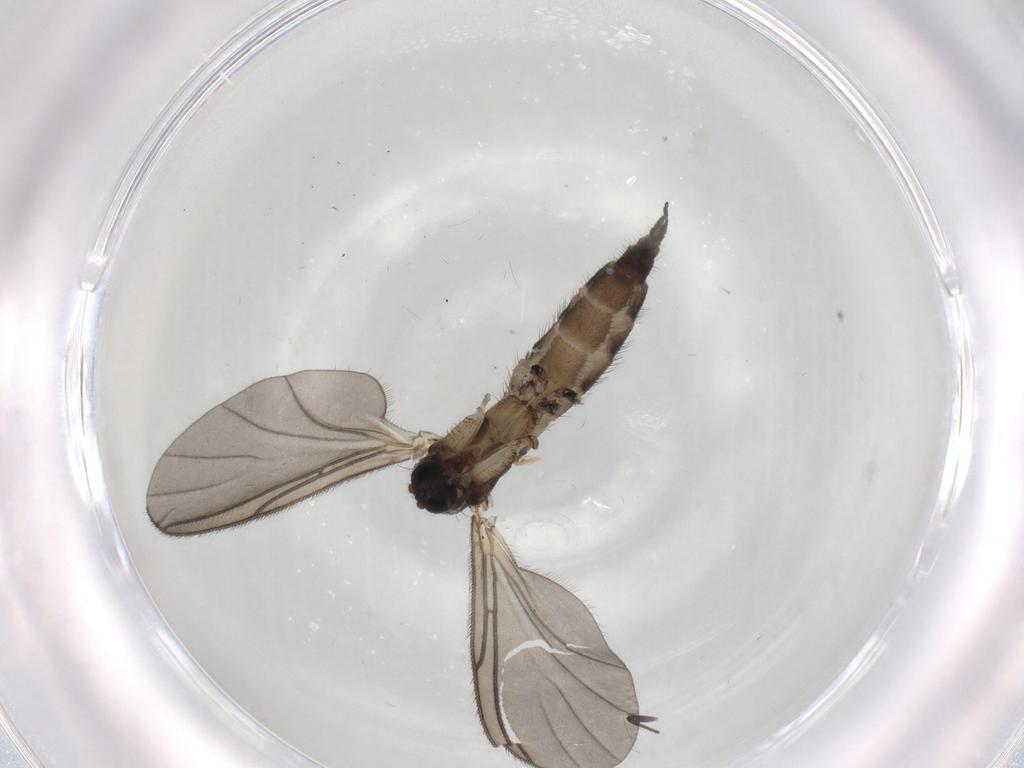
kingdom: Animalia
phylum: Arthropoda
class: Insecta
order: Diptera
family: Sciaridae
